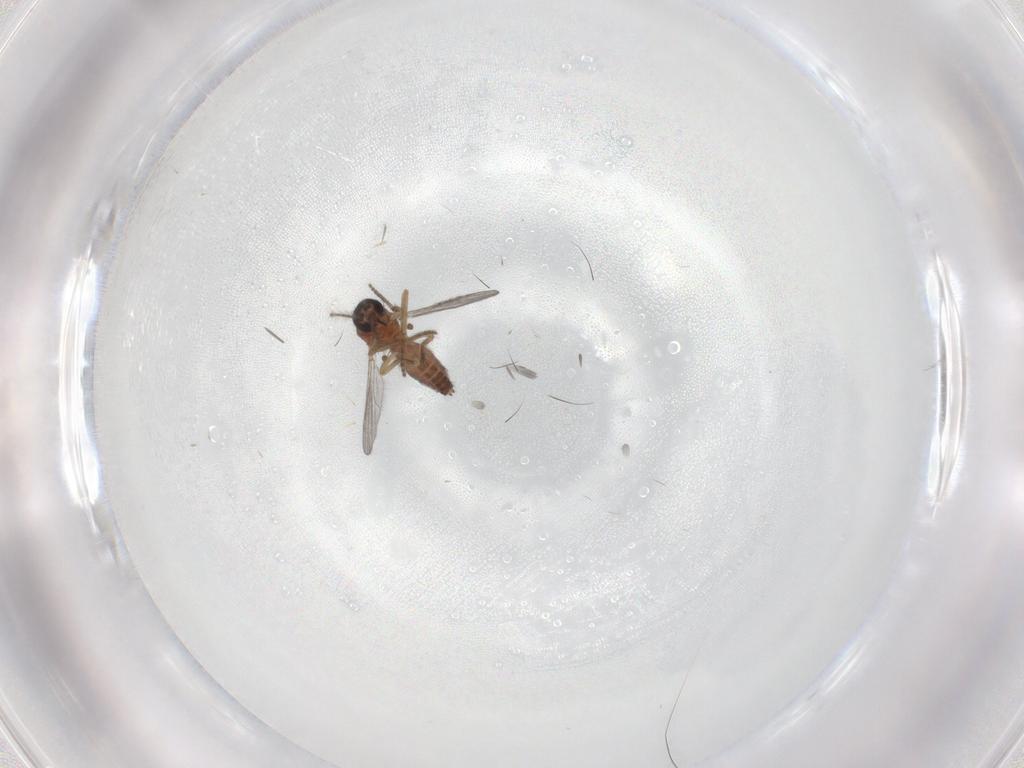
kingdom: Animalia
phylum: Arthropoda
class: Insecta
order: Diptera
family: Ceratopogonidae
